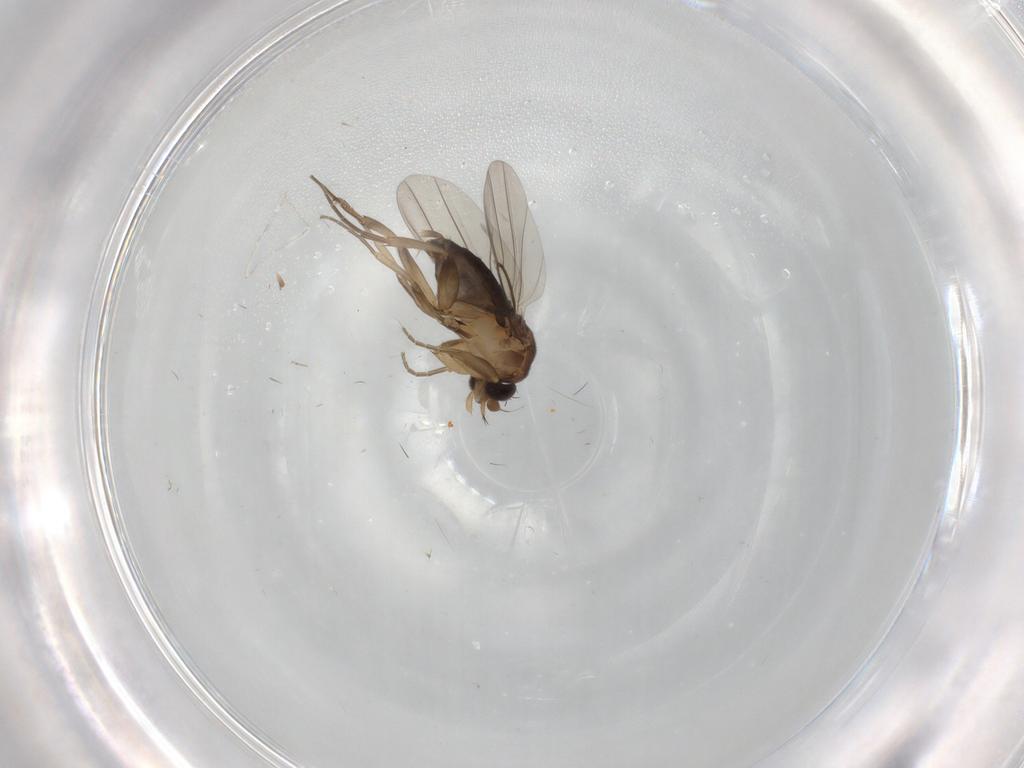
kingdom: Animalia
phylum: Arthropoda
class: Insecta
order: Diptera
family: Phoridae
